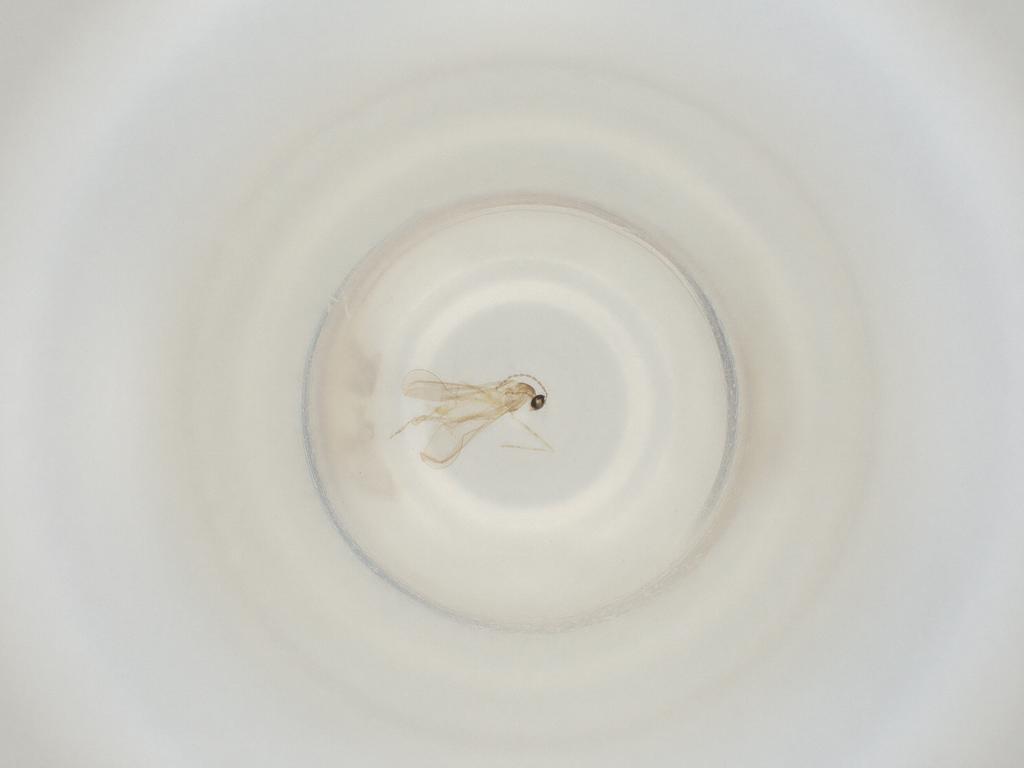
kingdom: Animalia
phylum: Arthropoda
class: Insecta
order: Diptera
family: Cecidomyiidae
